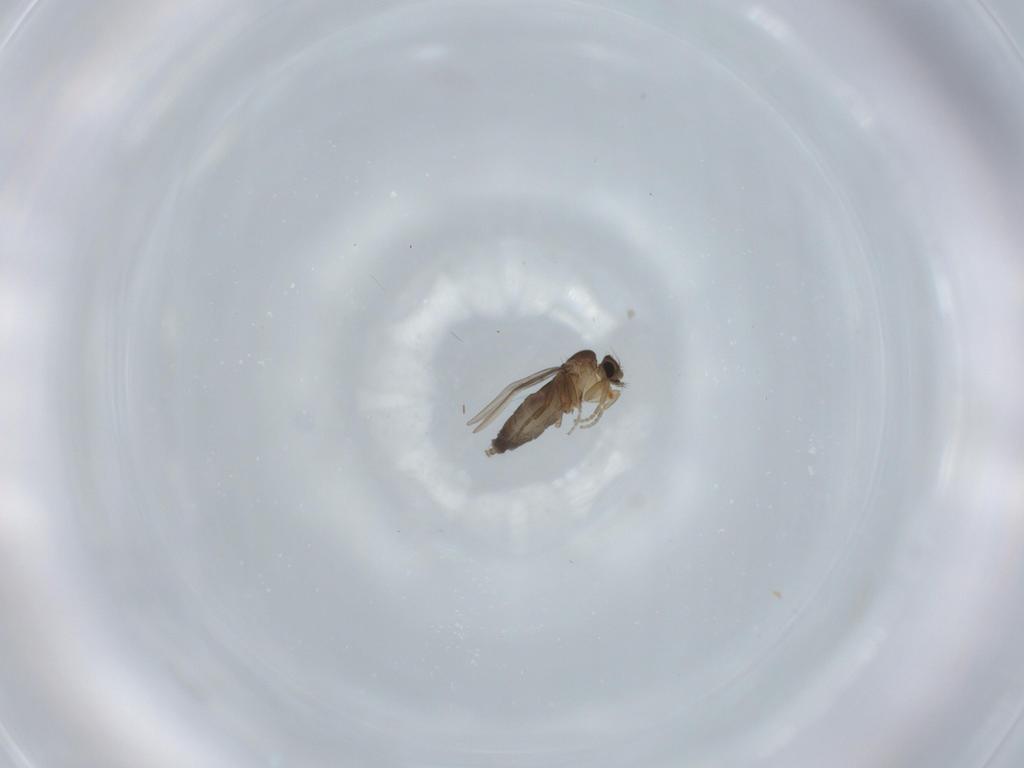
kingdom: Animalia
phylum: Arthropoda
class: Insecta
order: Diptera
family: Phoridae
